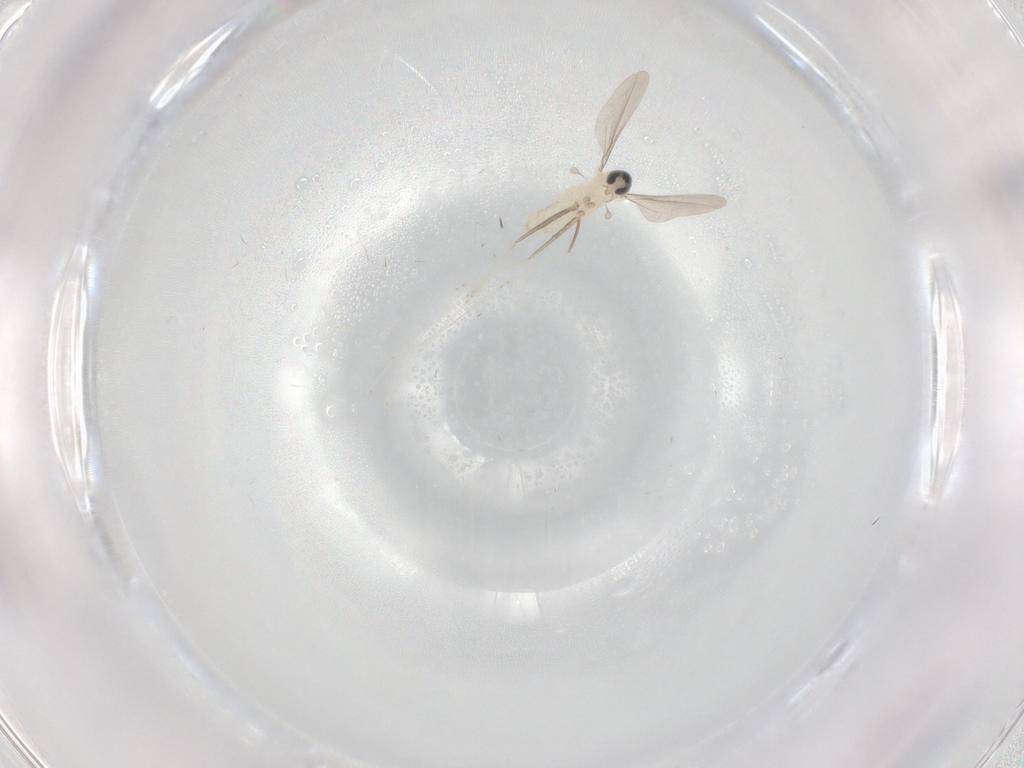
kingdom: Animalia
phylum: Arthropoda
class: Insecta
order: Diptera
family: Cecidomyiidae
